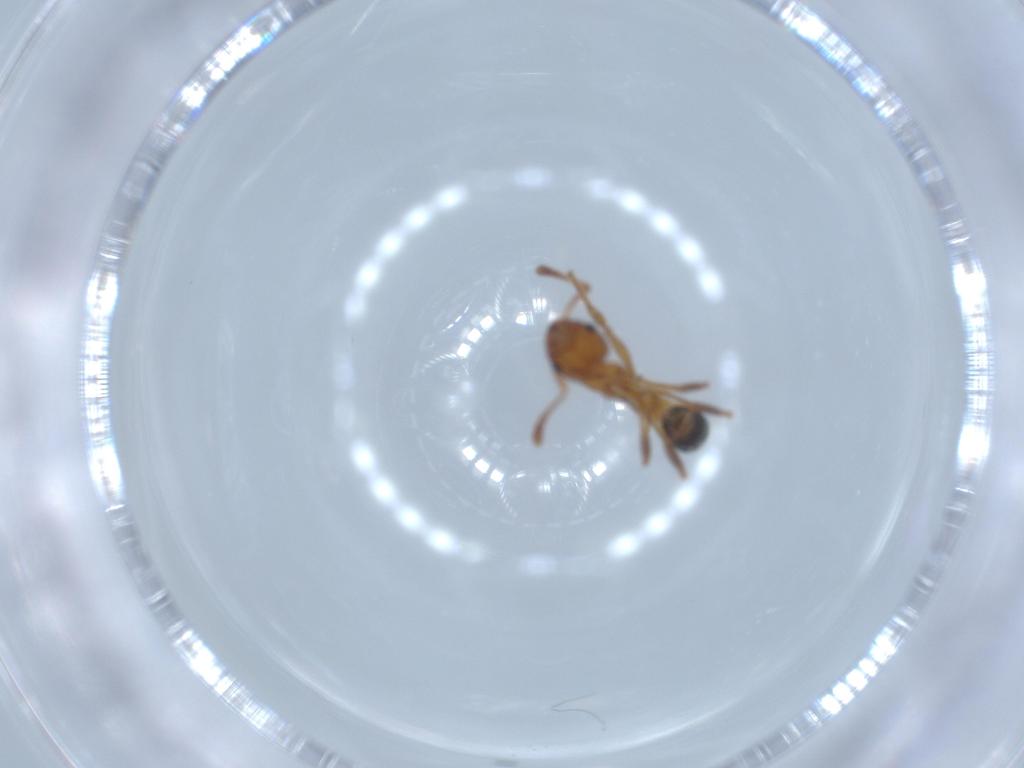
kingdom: Animalia
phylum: Arthropoda
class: Insecta
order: Hymenoptera
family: Formicidae
